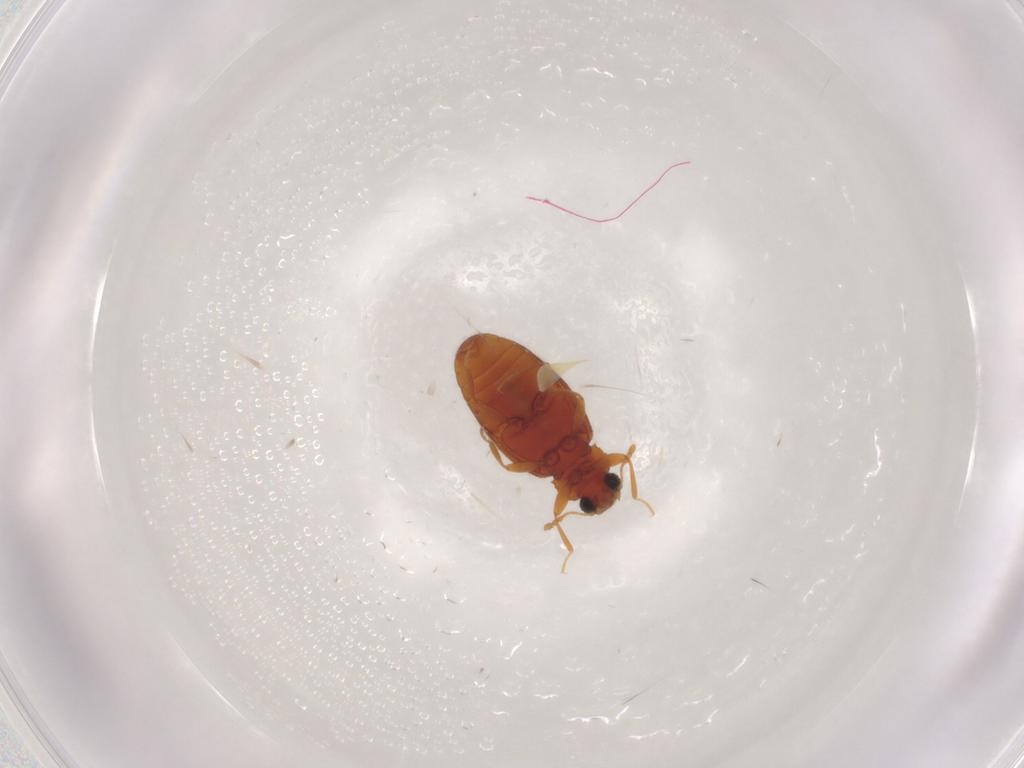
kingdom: Animalia
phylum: Arthropoda
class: Insecta
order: Coleoptera
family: Latridiidae
